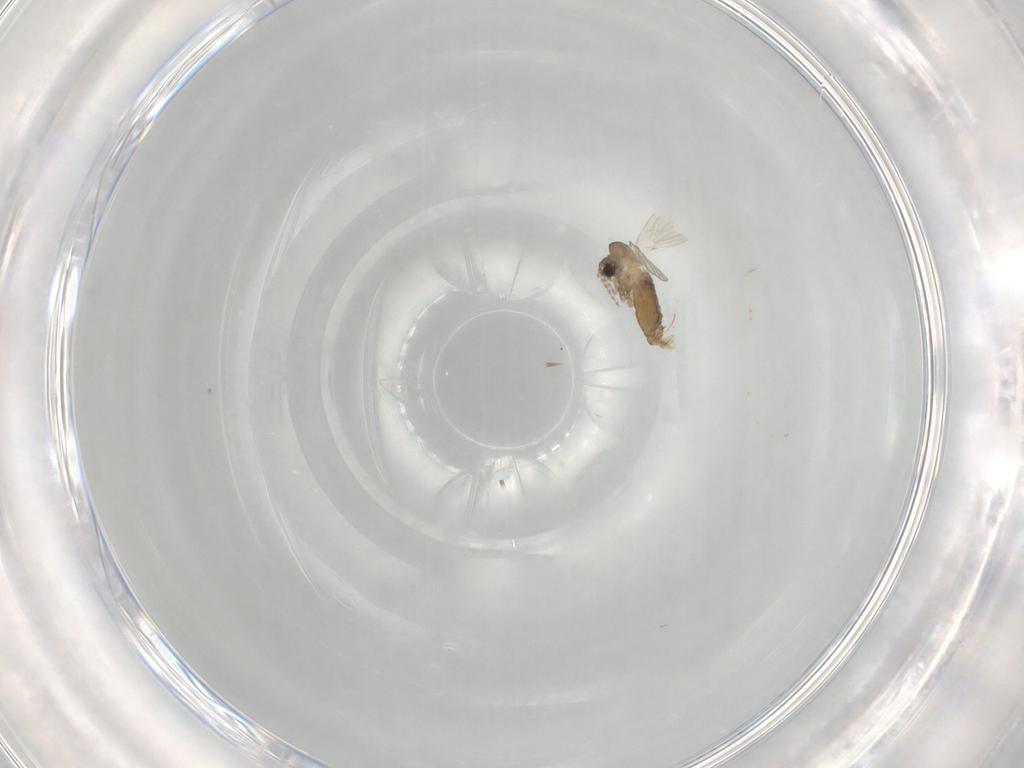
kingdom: Animalia
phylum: Arthropoda
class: Insecta
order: Diptera
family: Psychodidae
